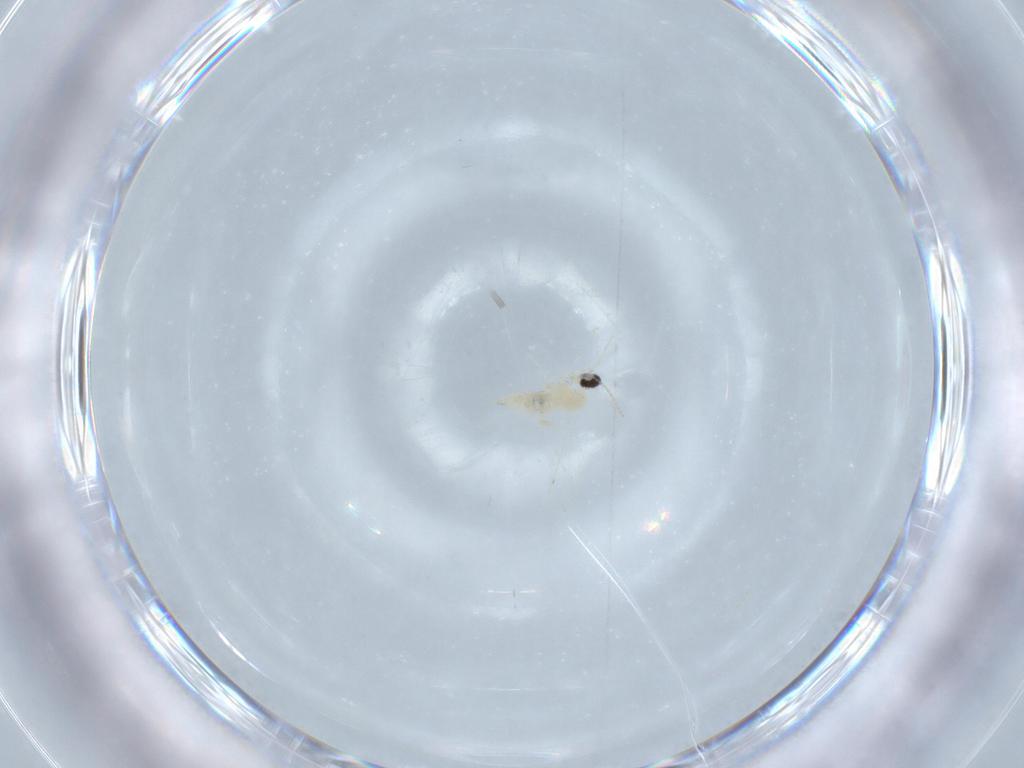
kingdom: Animalia
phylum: Arthropoda
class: Insecta
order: Diptera
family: Cecidomyiidae
